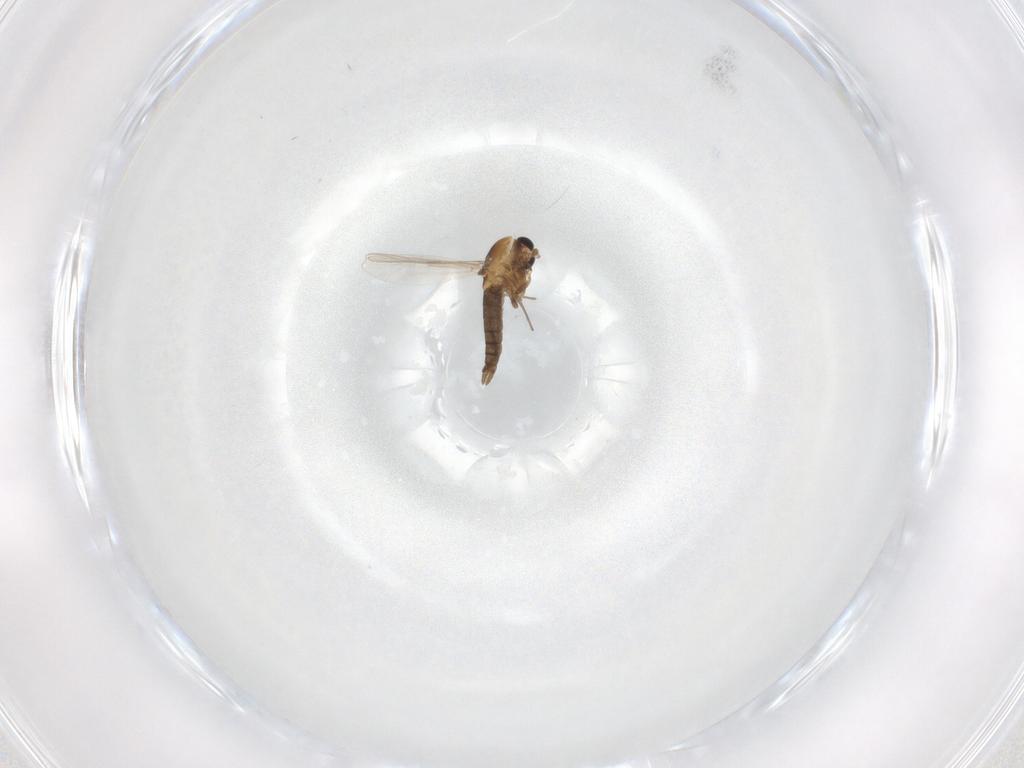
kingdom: Animalia
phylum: Arthropoda
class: Insecta
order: Diptera
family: Chironomidae
